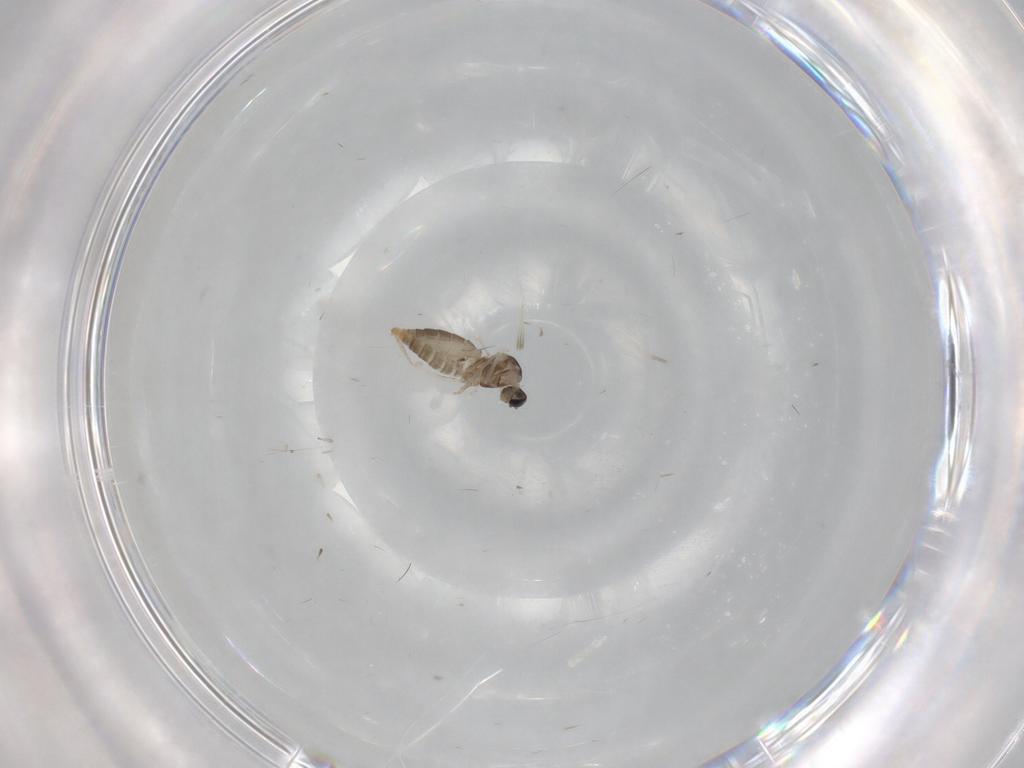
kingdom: Animalia
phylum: Arthropoda
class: Insecta
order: Diptera
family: Cecidomyiidae
